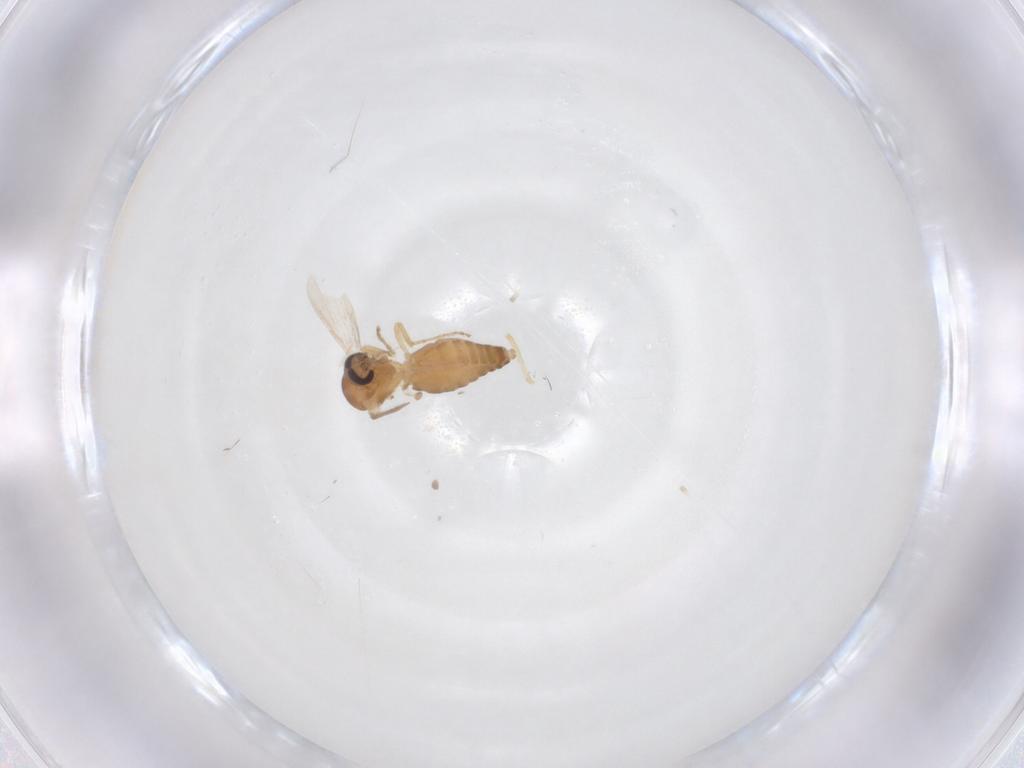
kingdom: Animalia
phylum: Arthropoda
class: Insecta
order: Diptera
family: Ceratopogonidae
